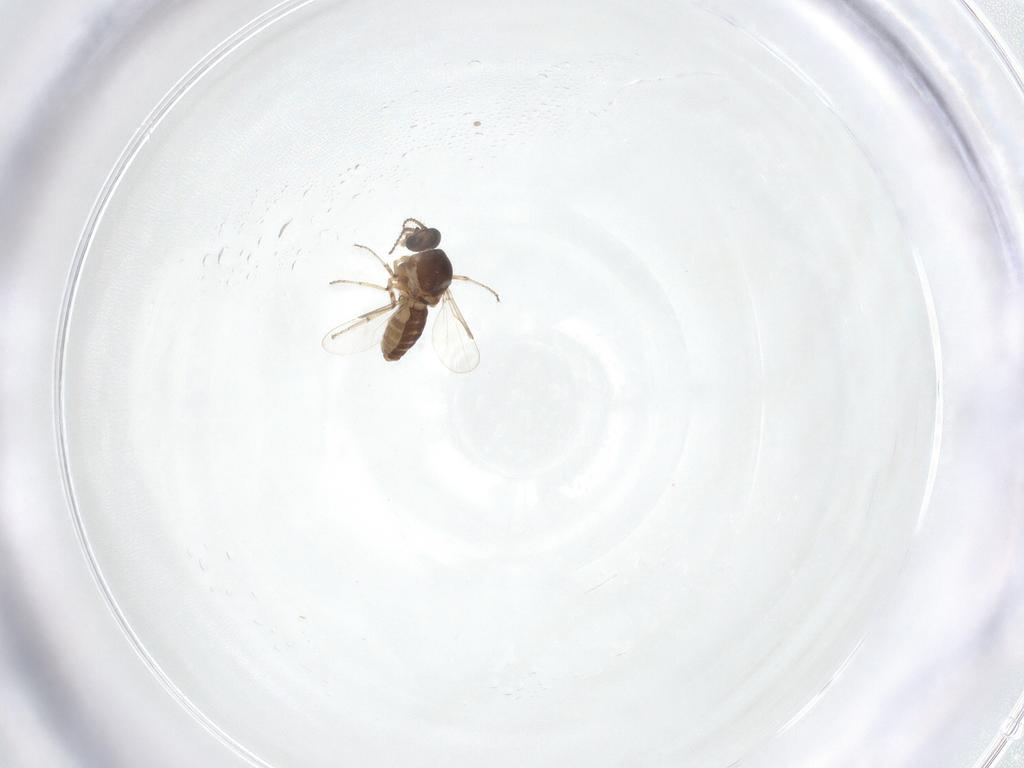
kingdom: Animalia
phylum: Arthropoda
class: Insecta
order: Diptera
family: Ceratopogonidae
